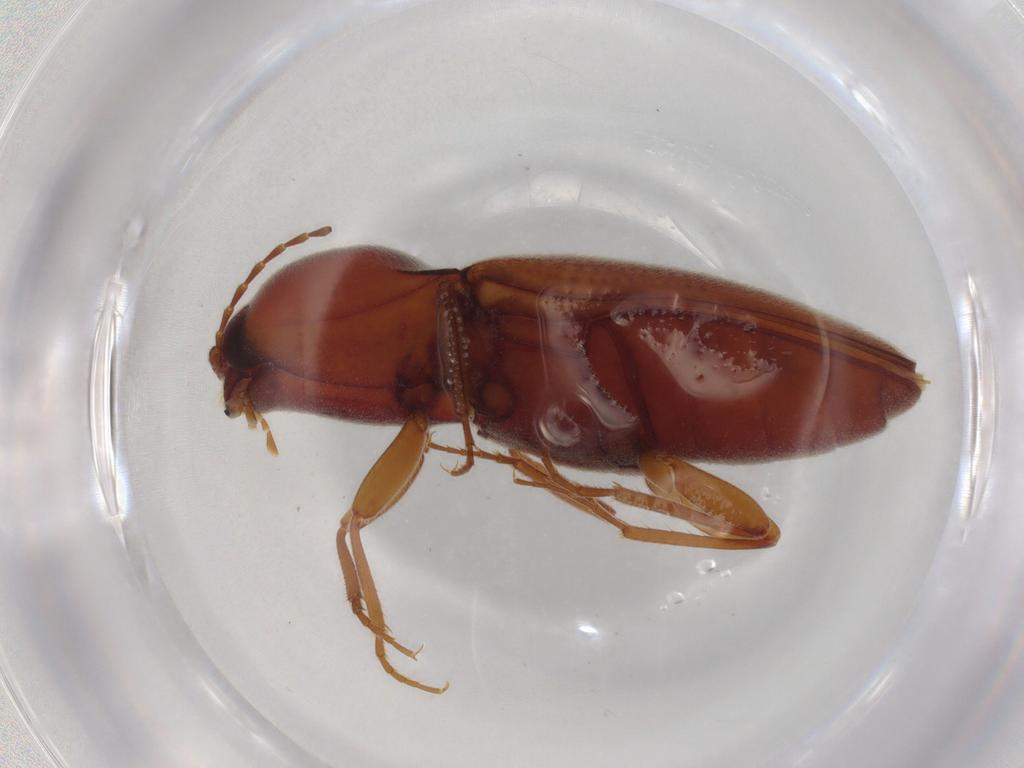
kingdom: Animalia
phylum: Arthropoda
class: Insecta
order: Coleoptera
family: Elateridae
